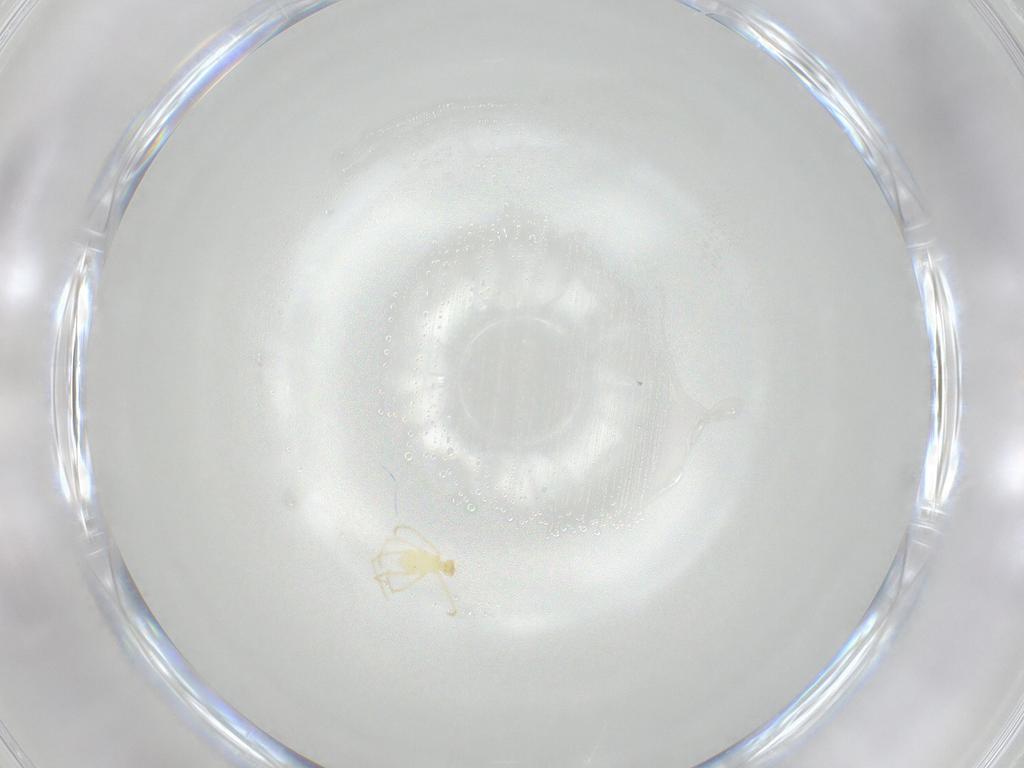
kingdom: Animalia
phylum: Arthropoda
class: Arachnida
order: Trombidiformes
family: Erythraeidae
